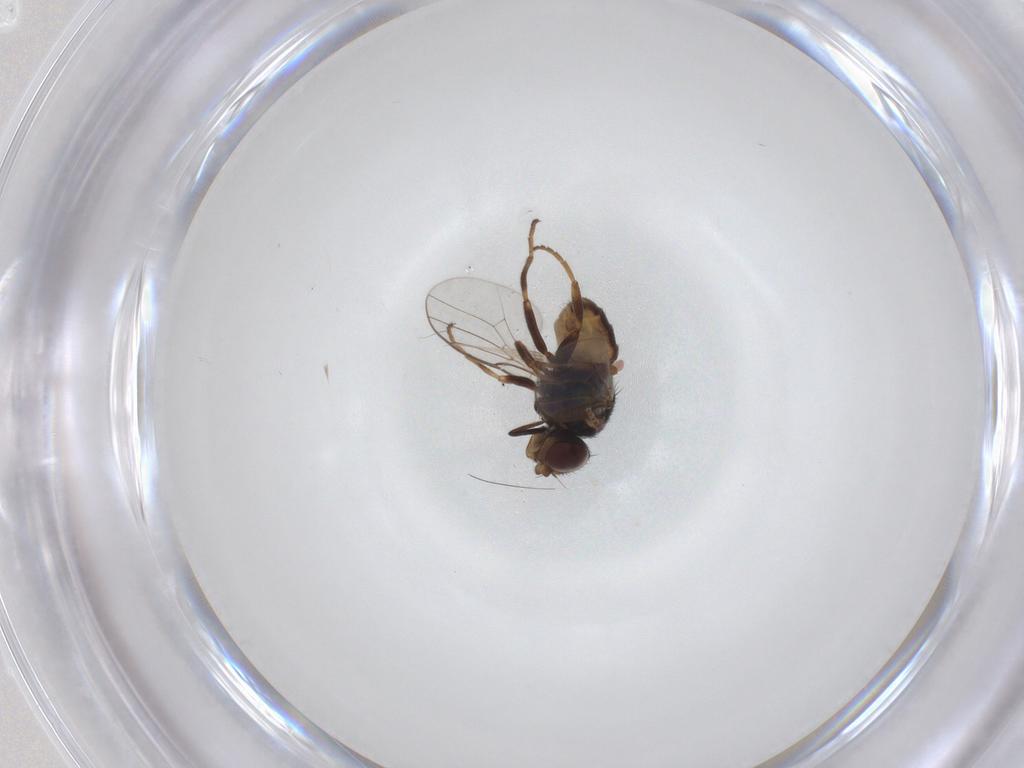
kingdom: Animalia
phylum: Arthropoda
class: Insecta
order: Diptera
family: Chloropidae
